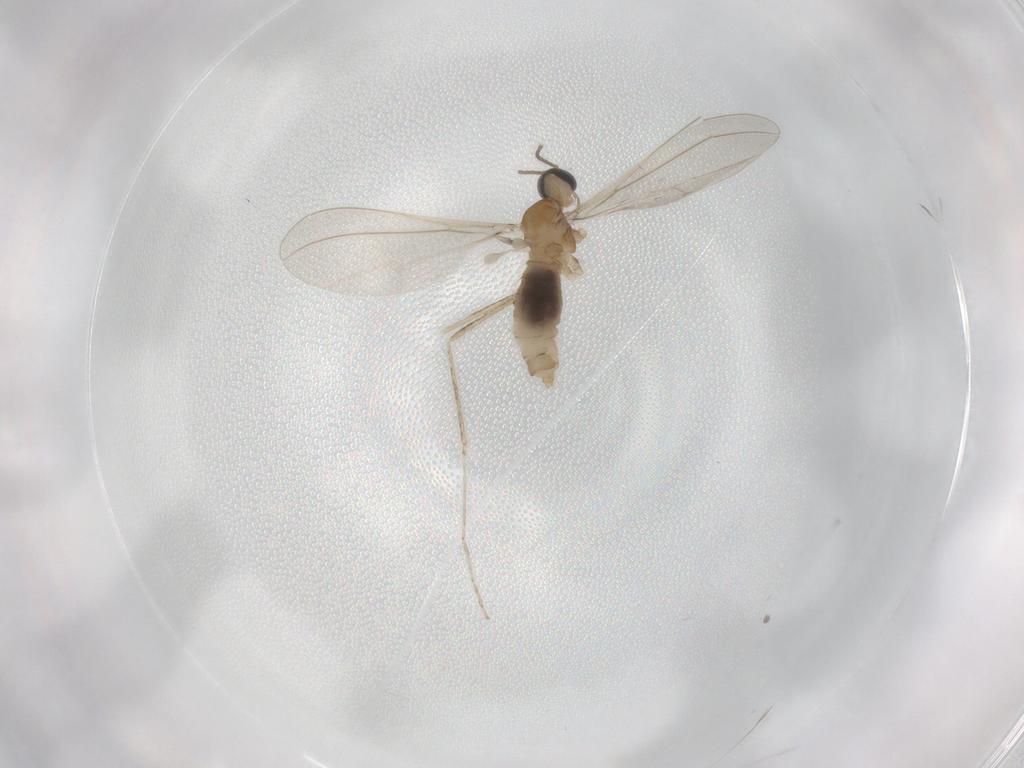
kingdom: Animalia
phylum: Arthropoda
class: Insecta
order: Diptera
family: Cecidomyiidae
